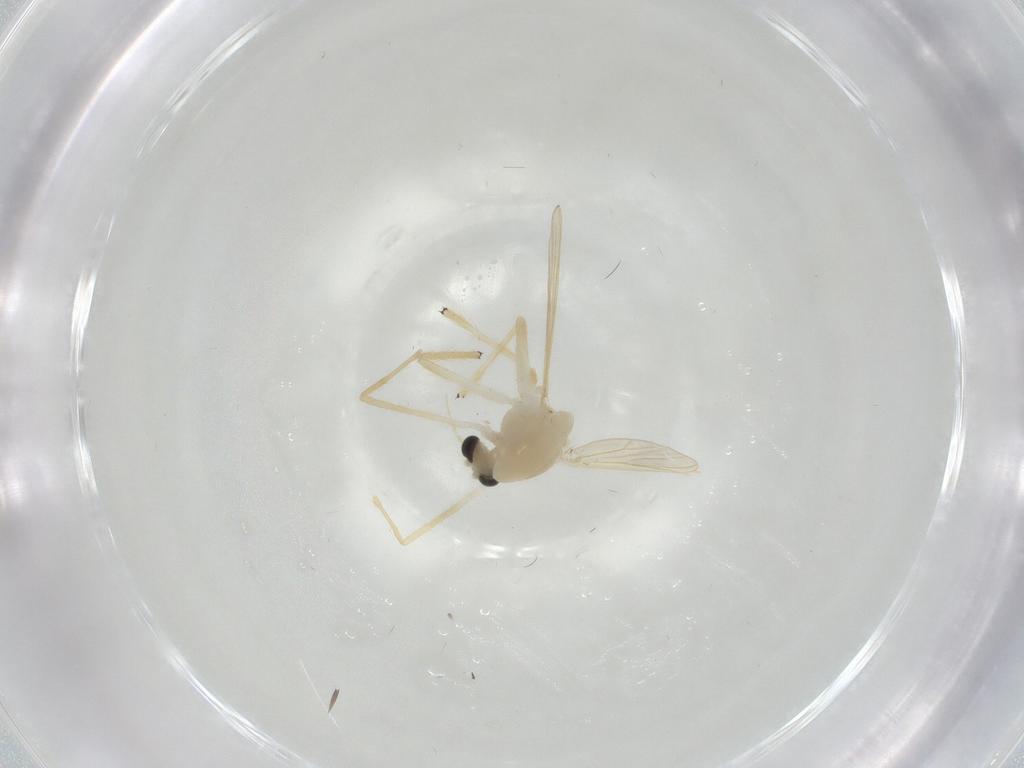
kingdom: Animalia
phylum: Arthropoda
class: Insecta
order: Diptera
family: Chironomidae
